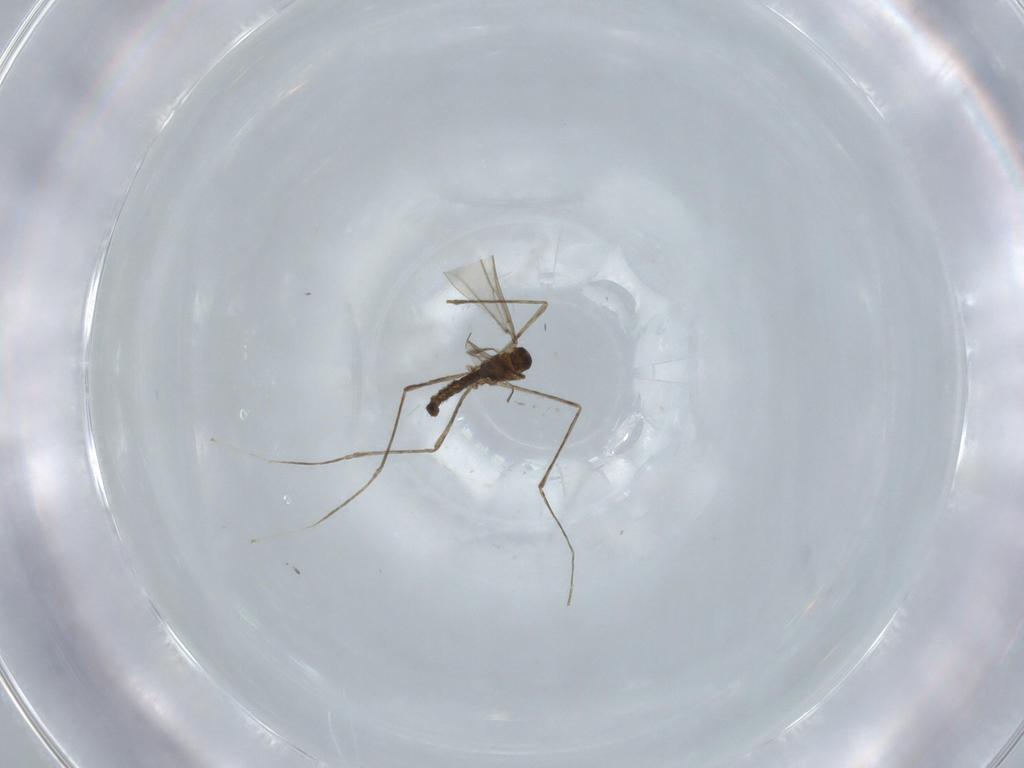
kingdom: Animalia
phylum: Arthropoda
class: Insecta
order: Diptera
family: Cecidomyiidae
